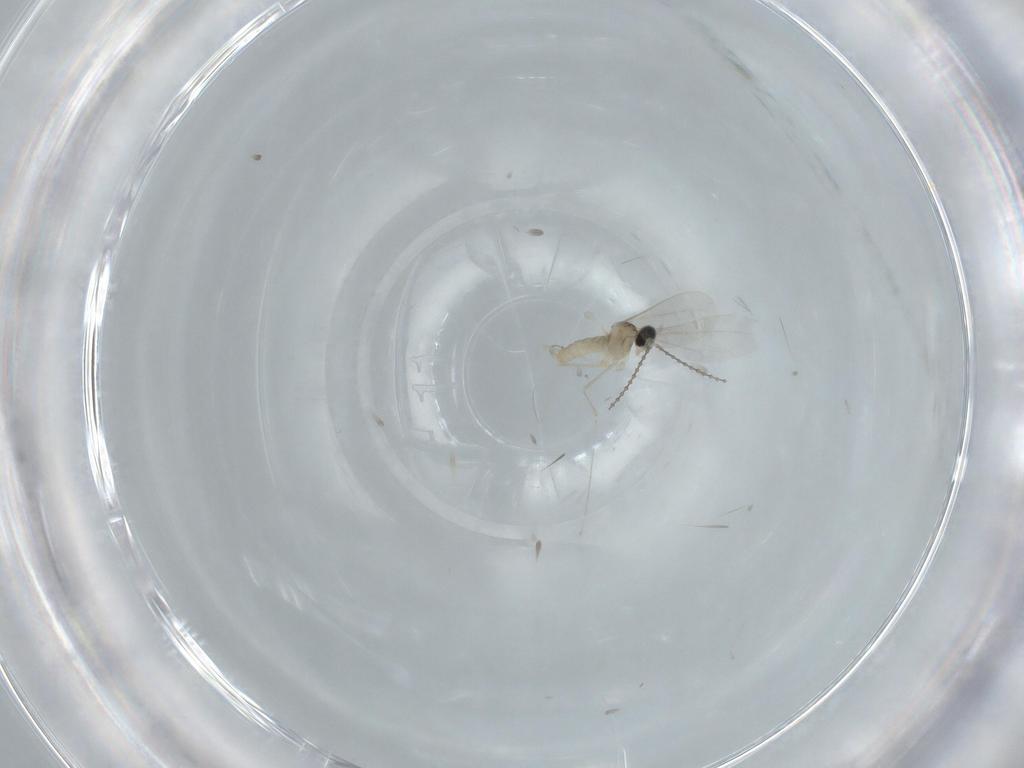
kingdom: Animalia
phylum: Arthropoda
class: Insecta
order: Diptera
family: Cecidomyiidae
